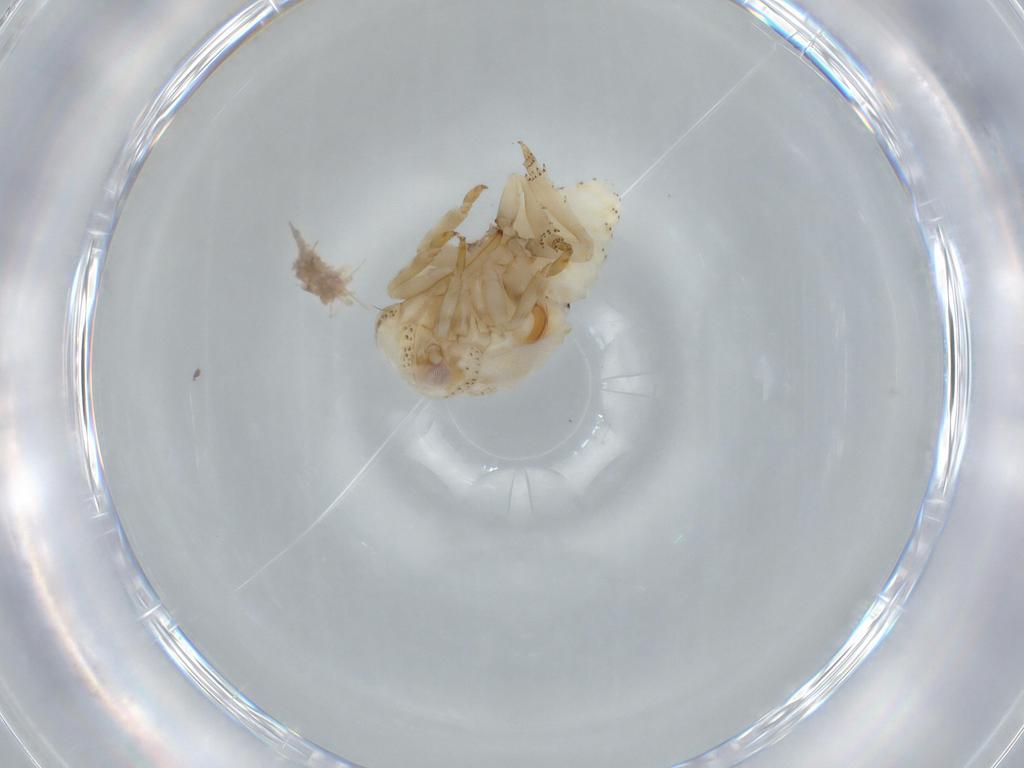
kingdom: Animalia
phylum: Arthropoda
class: Insecta
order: Hemiptera
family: Acanaloniidae
